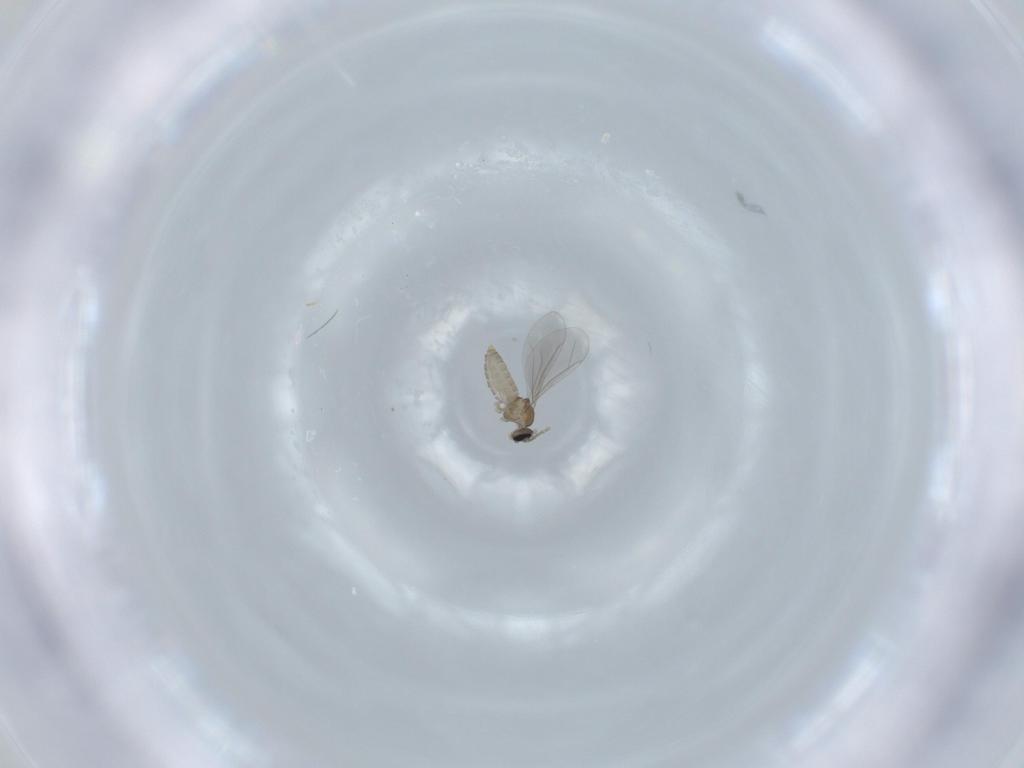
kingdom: Animalia
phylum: Arthropoda
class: Insecta
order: Diptera
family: Cecidomyiidae
